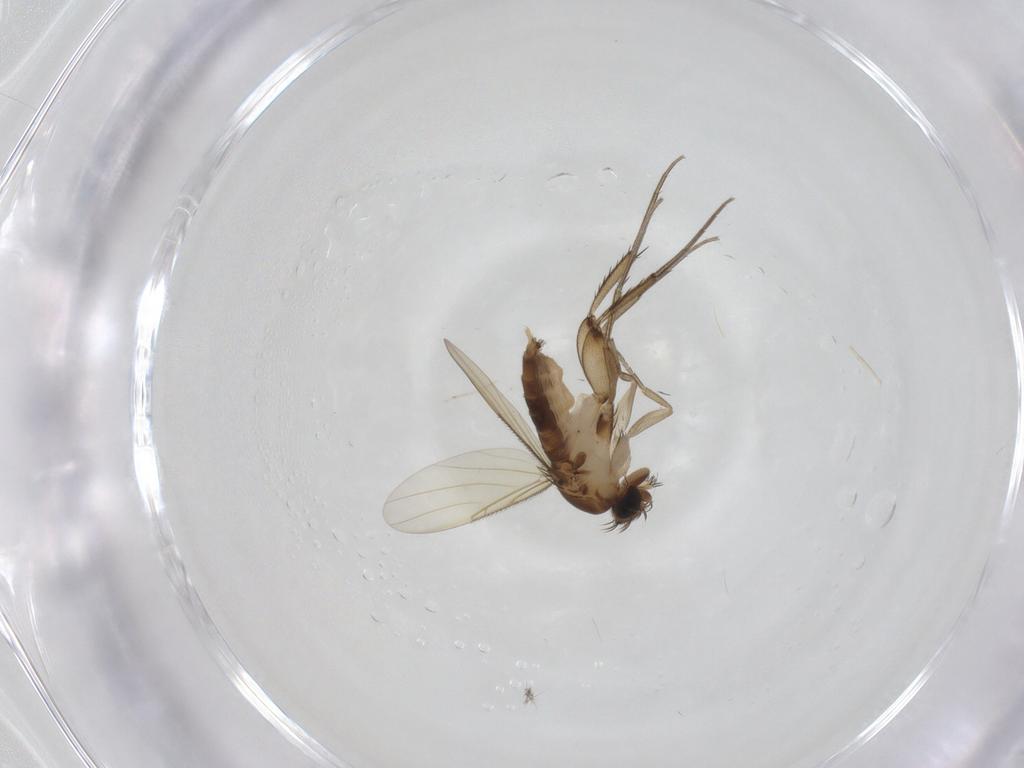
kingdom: Animalia
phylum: Arthropoda
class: Insecta
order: Diptera
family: Phoridae
